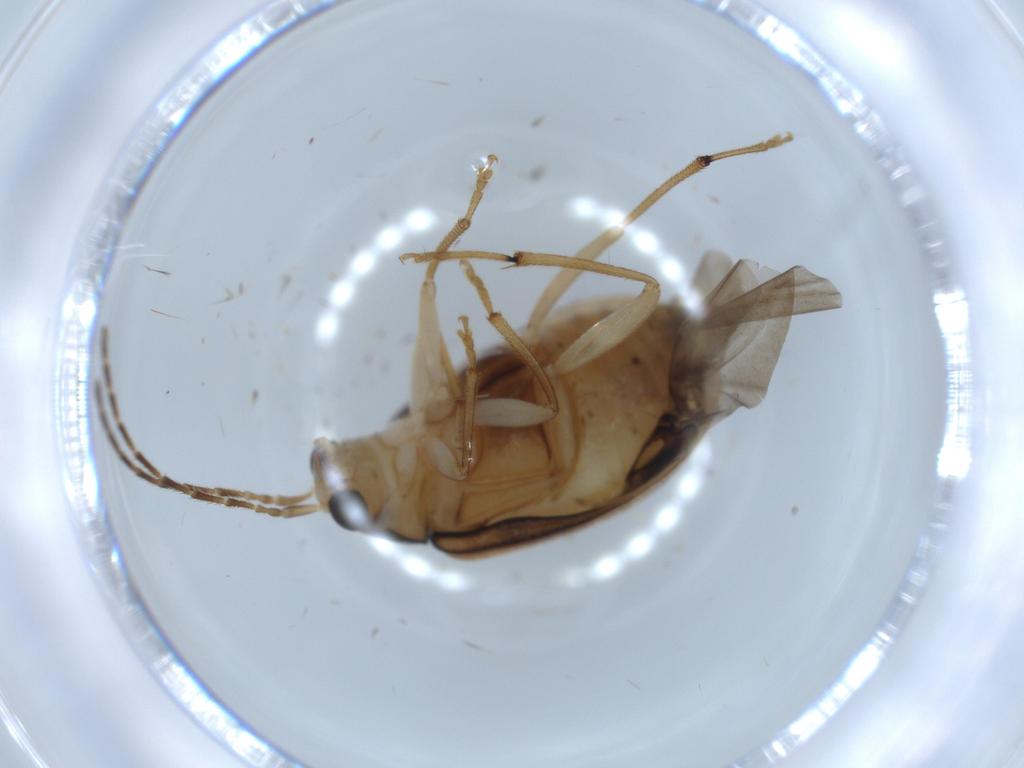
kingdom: Animalia
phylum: Arthropoda
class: Insecta
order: Coleoptera
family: Chrysomelidae
